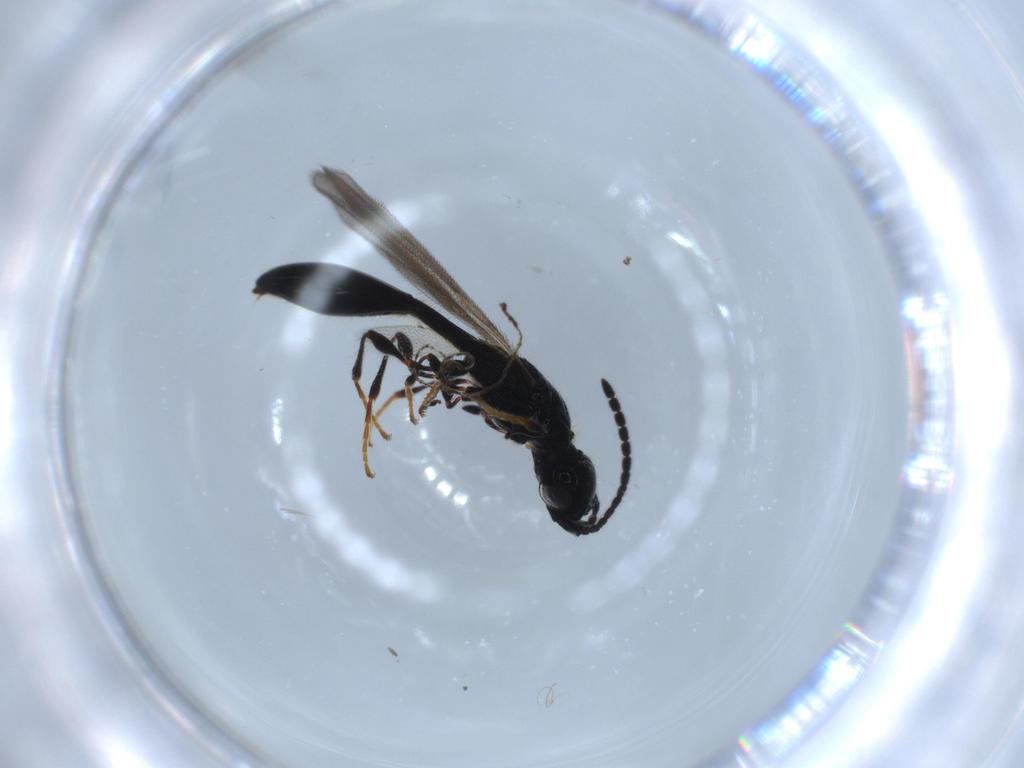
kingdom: Animalia
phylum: Arthropoda
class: Insecta
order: Hymenoptera
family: Diapriidae
